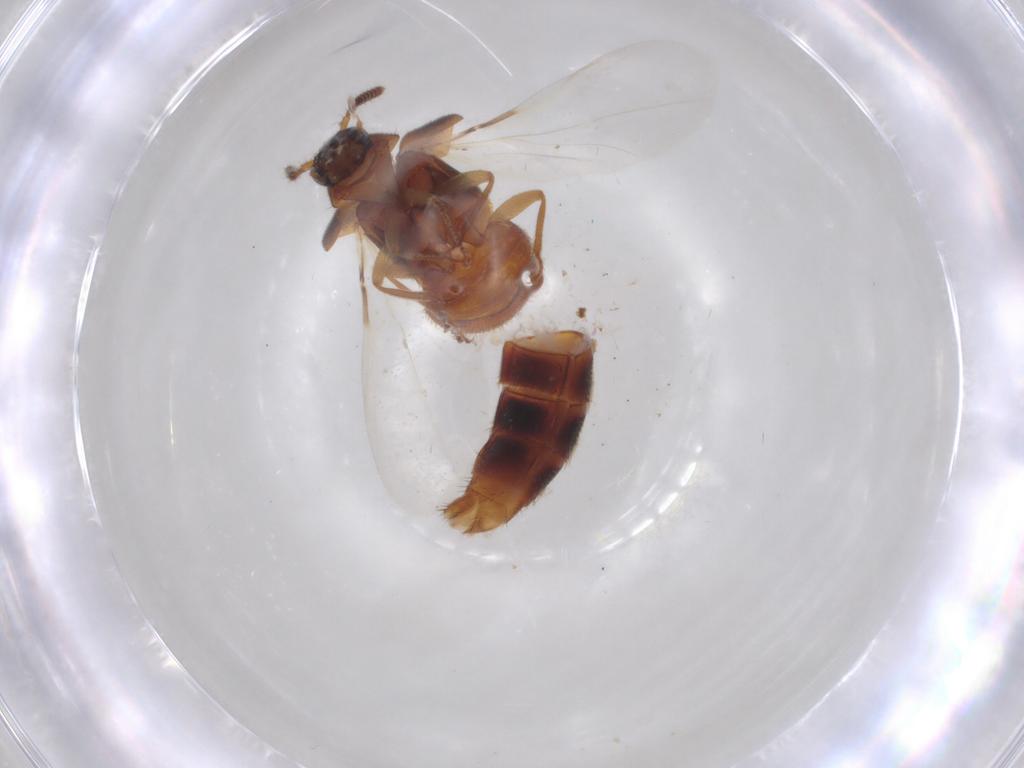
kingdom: Animalia
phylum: Arthropoda
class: Insecta
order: Coleoptera
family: Staphylinidae
